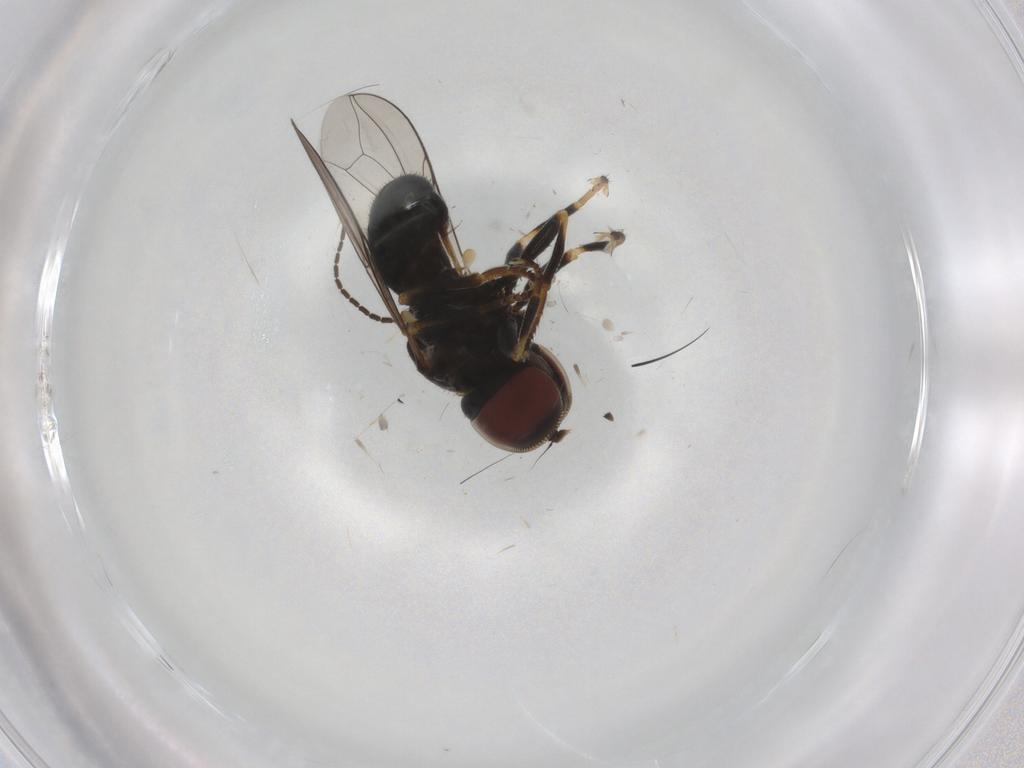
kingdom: Animalia
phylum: Arthropoda
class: Insecta
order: Diptera
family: Pipunculidae
